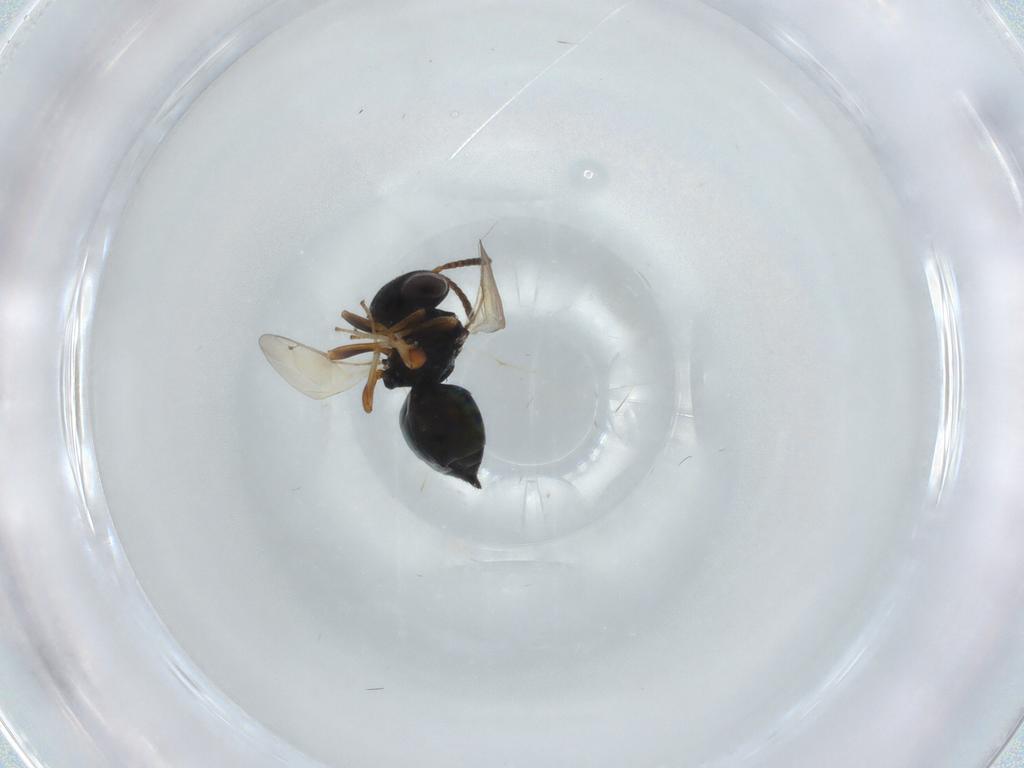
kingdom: Animalia
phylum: Arthropoda
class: Insecta
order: Hymenoptera
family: Pteromalidae
